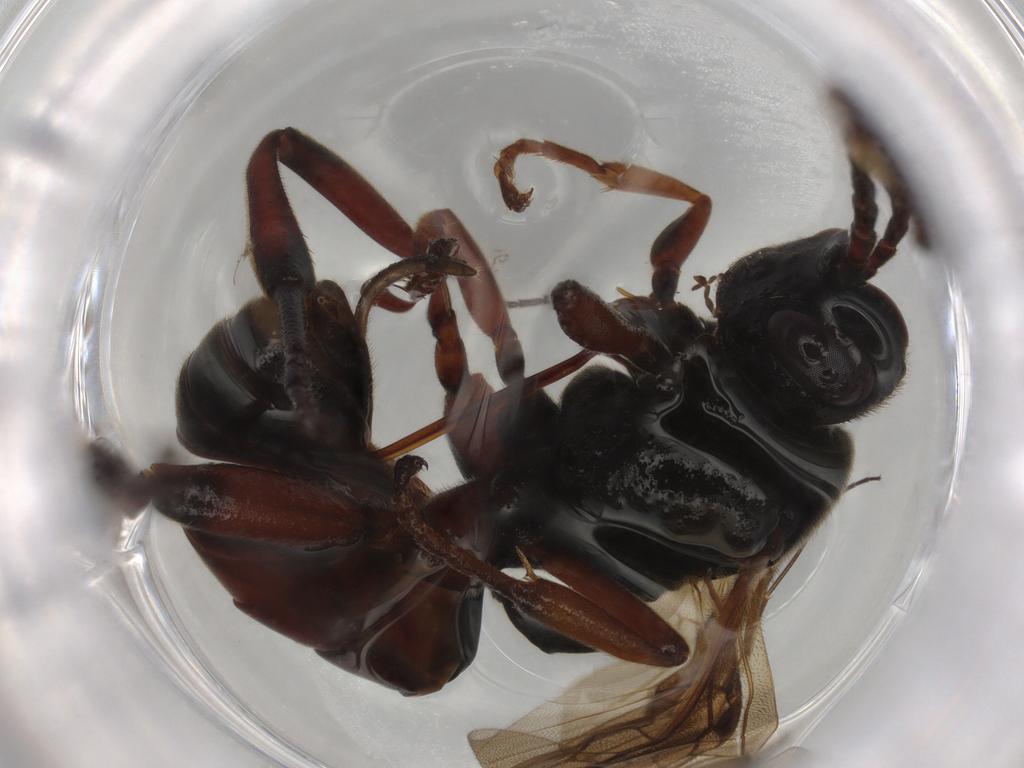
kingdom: Animalia
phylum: Arthropoda
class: Insecta
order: Hymenoptera
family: Ichneumonidae
